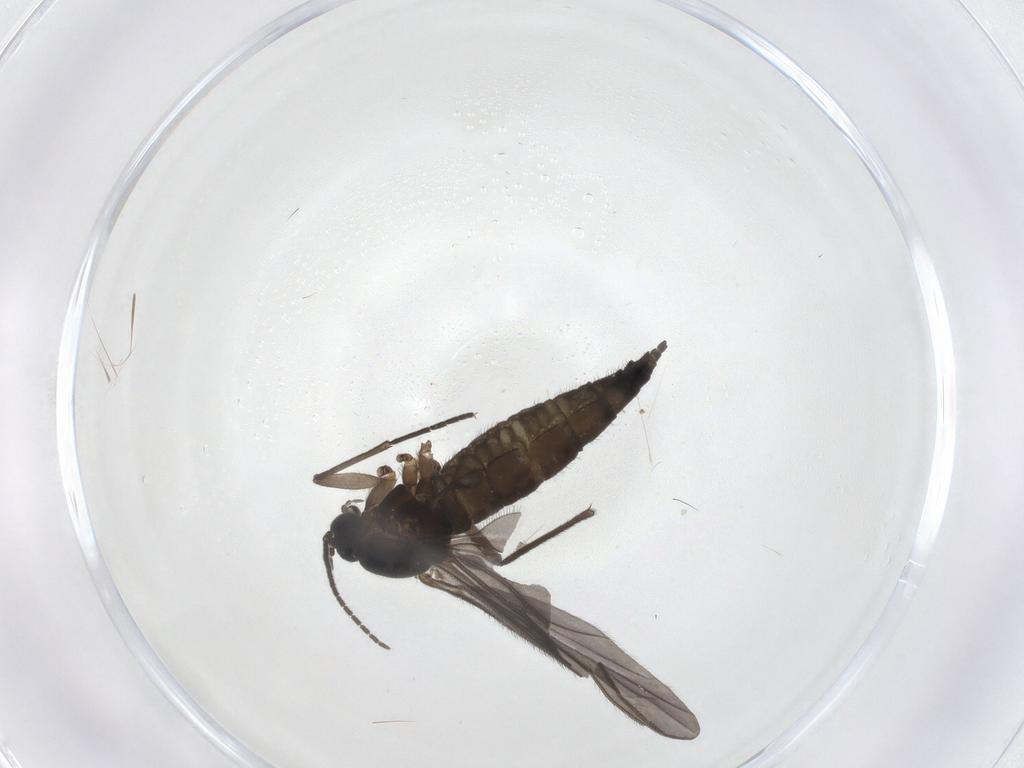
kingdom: Animalia
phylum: Arthropoda
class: Insecta
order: Diptera
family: Sciaridae
